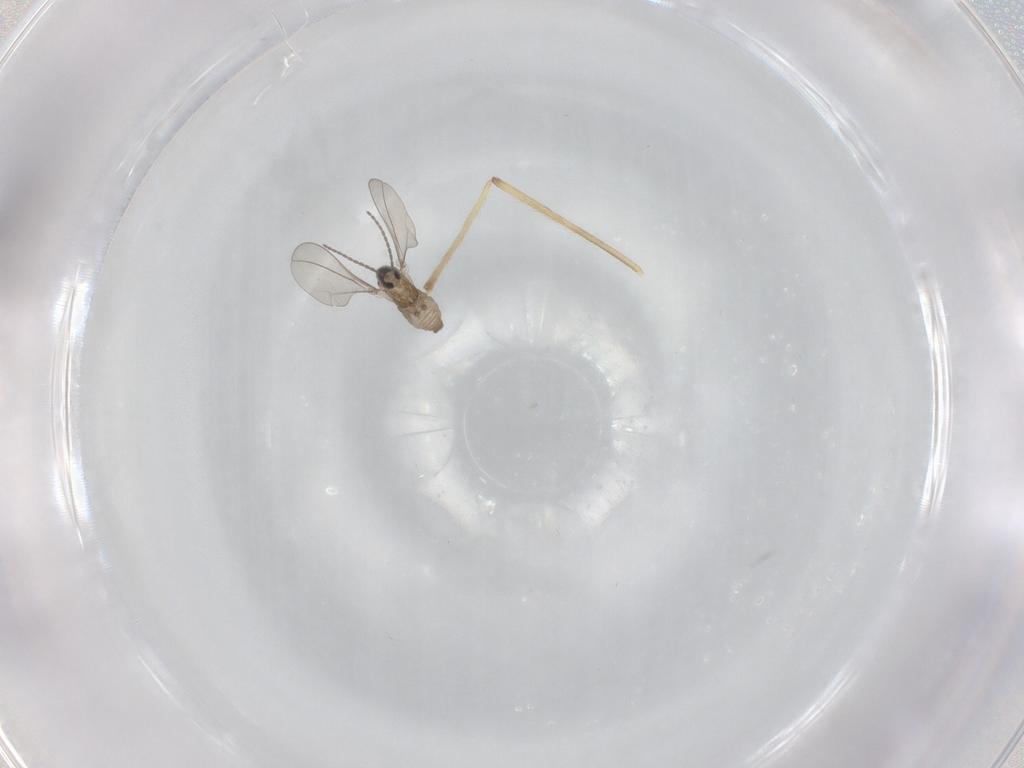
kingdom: Animalia
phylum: Arthropoda
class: Insecta
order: Diptera
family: Cecidomyiidae
